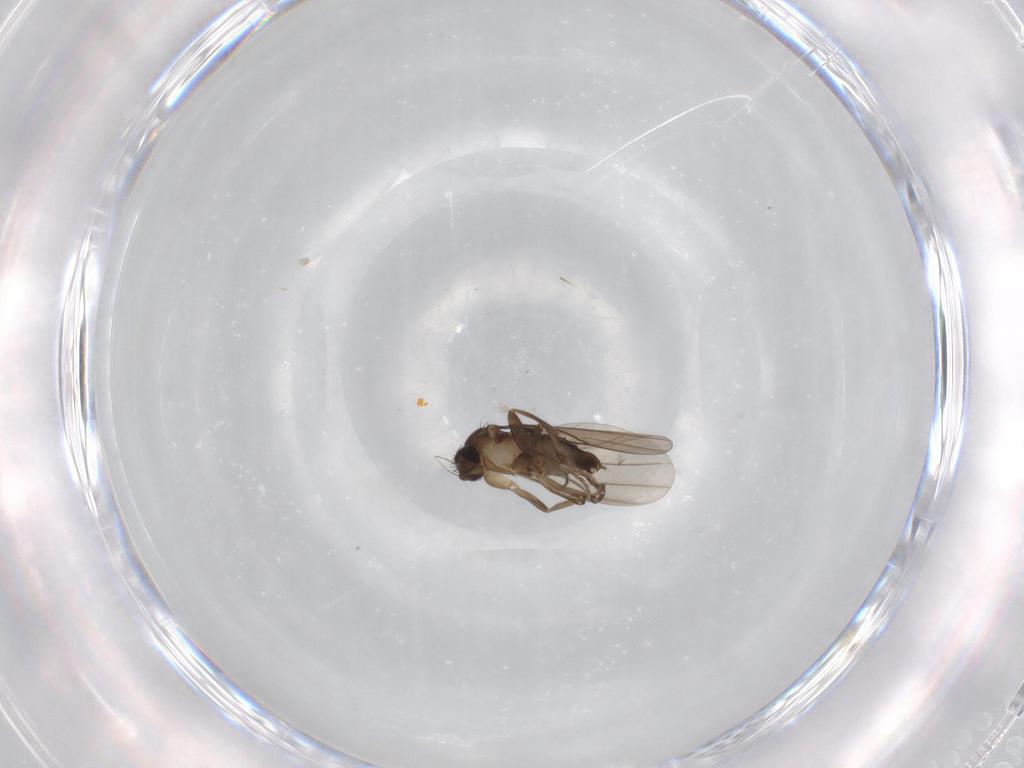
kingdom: Animalia
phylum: Arthropoda
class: Insecta
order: Diptera
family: Phoridae
